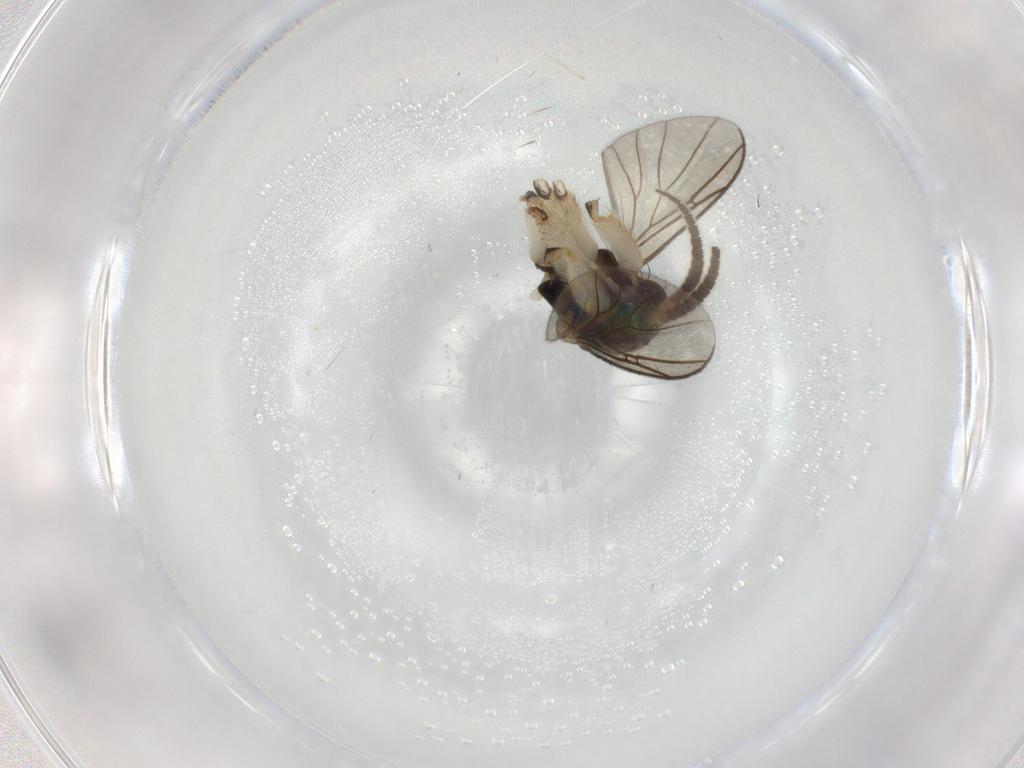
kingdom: Animalia
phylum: Arthropoda
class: Insecta
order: Diptera
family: Mycetophilidae
